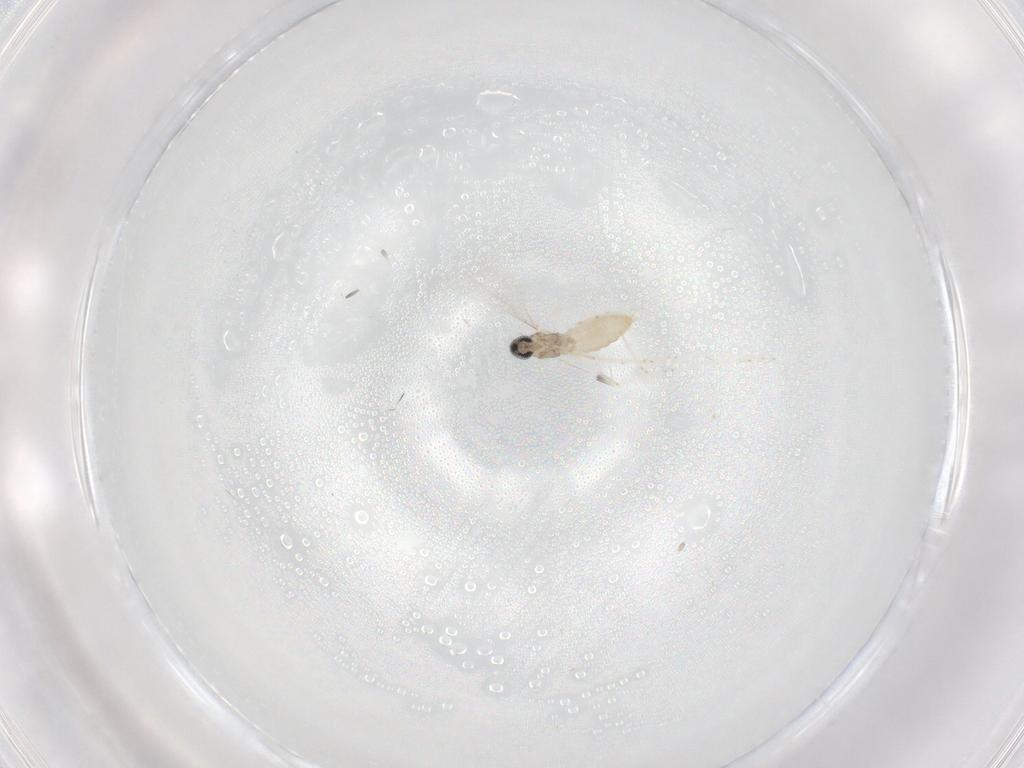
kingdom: Animalia
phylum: Arthropoda
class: Insecta
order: Diptera
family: Cecidomyiidae
